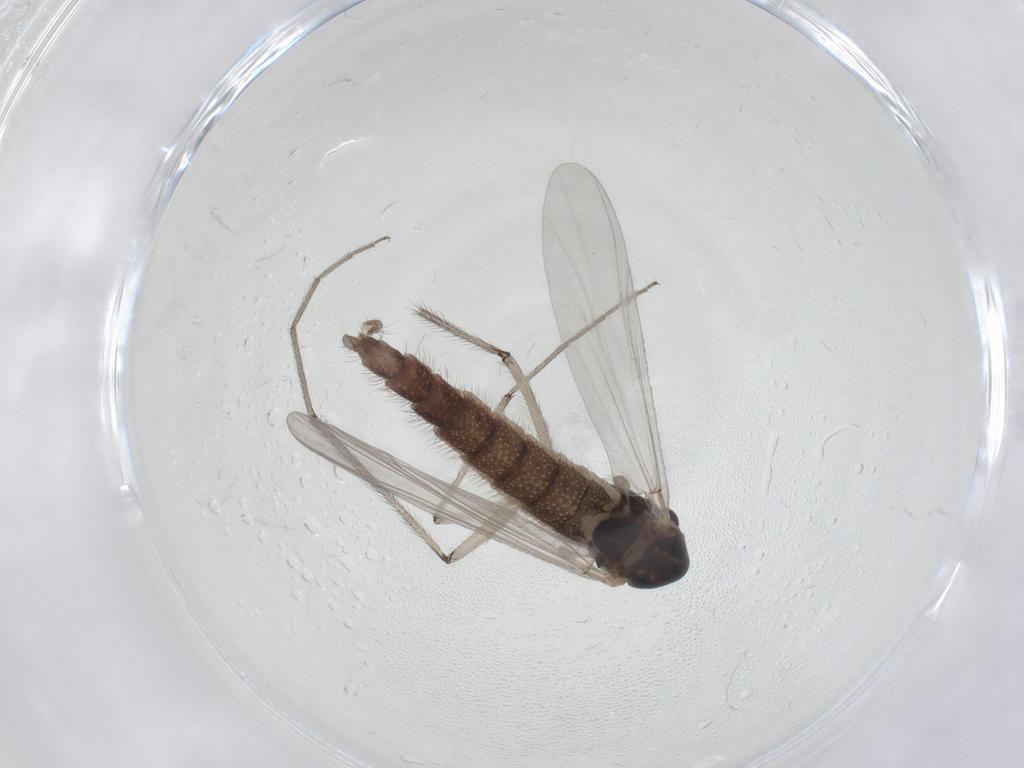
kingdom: Animalia
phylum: Arthropoda
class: Insecta
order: Diptera
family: Chironomidae
